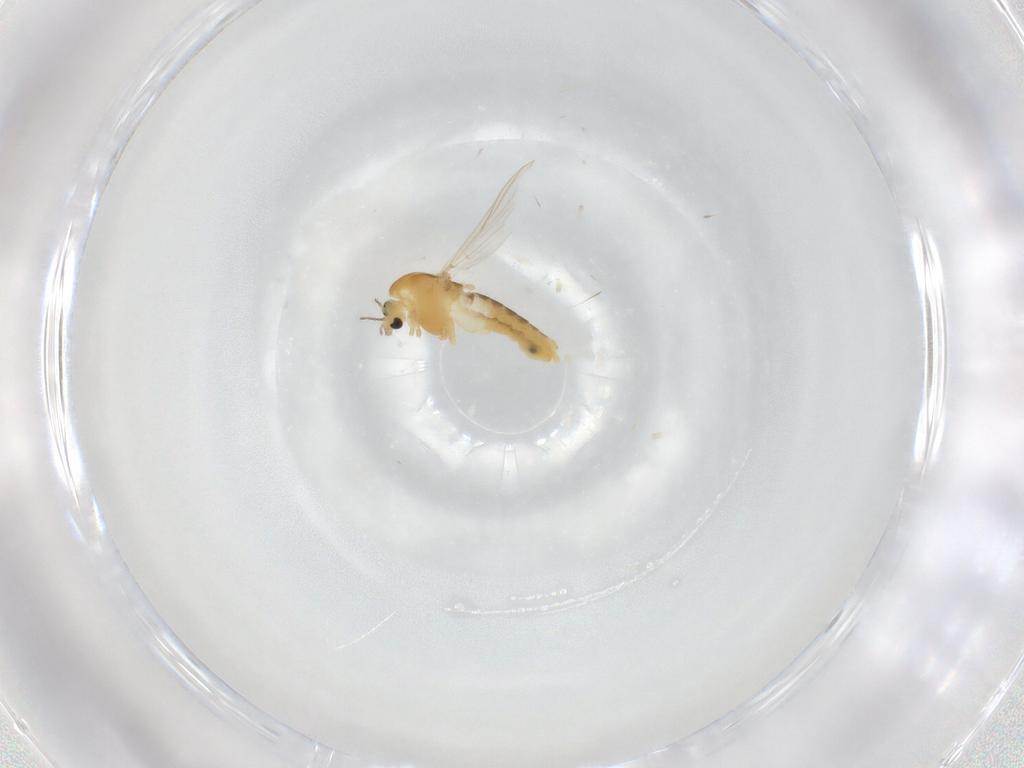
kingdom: Animalia
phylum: Arthropoda
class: Insecta
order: Diptera
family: Chironomidae
